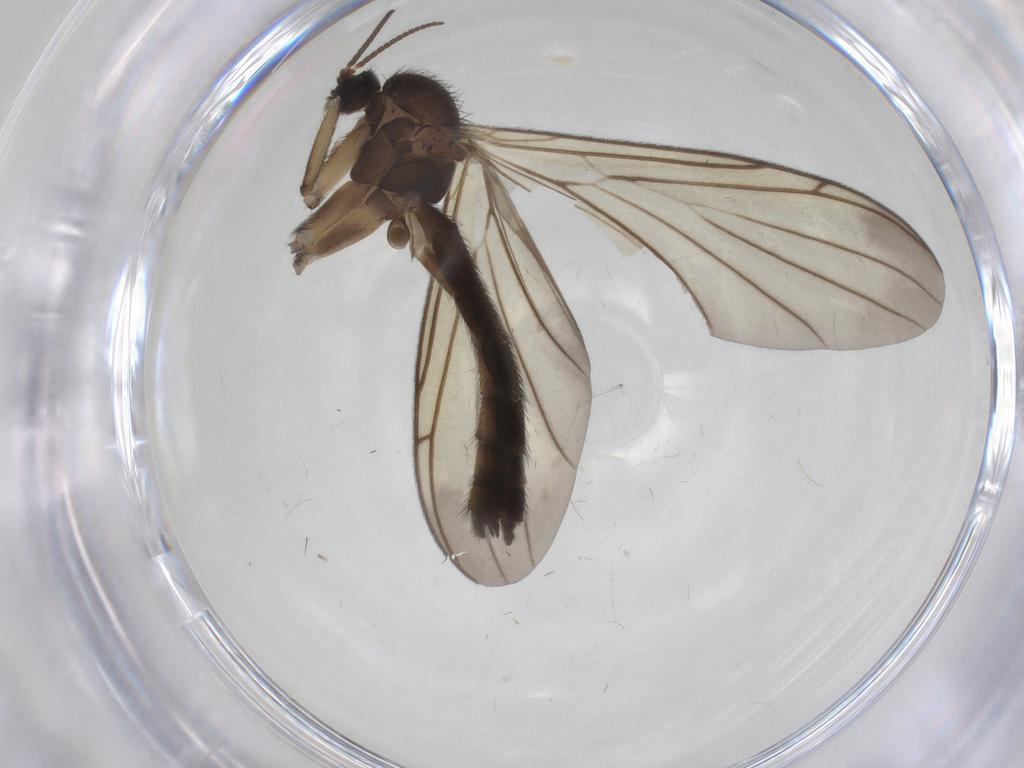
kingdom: Animalia
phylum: Arthropoda
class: Insecta
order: Diptera
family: Keroplatidae
